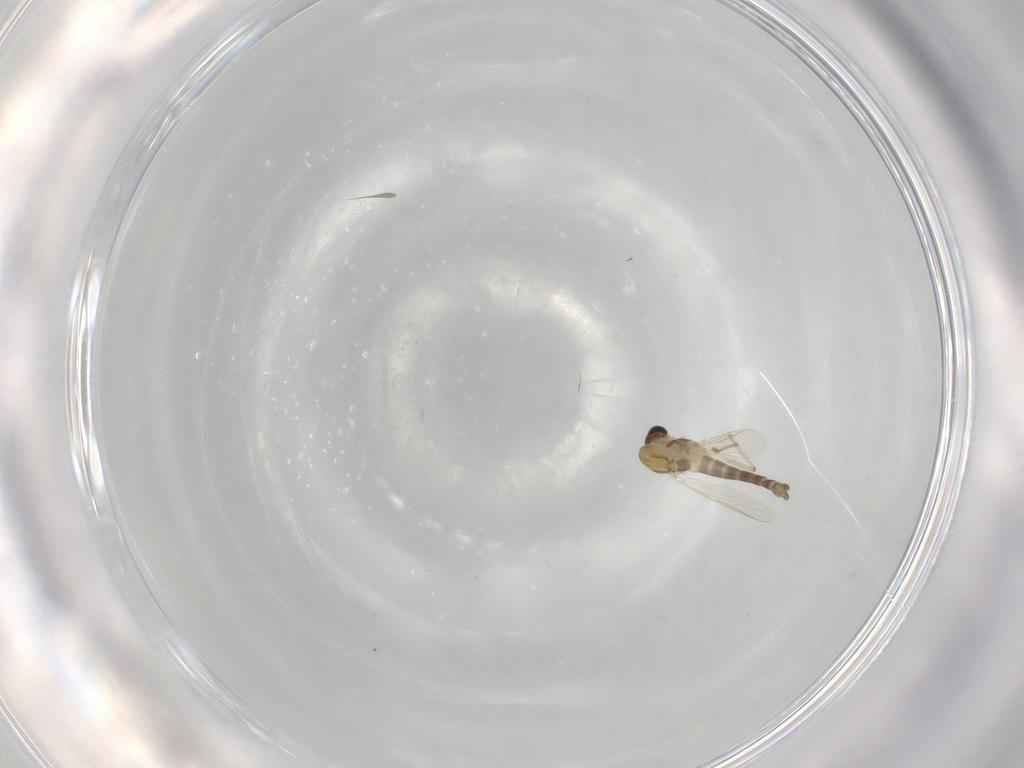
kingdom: Animalia
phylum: Arthropoda
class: Insecta
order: Diptera
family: Chironomidae
